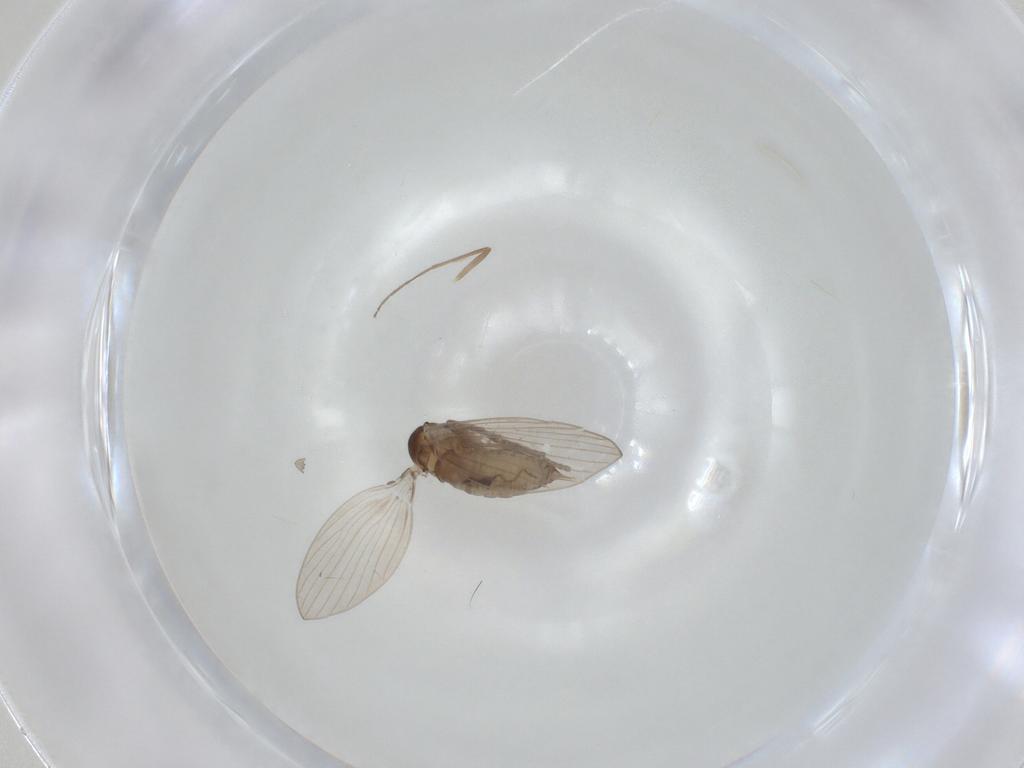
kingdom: Animalia
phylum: Arthropoda
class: Insecta
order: Diptera
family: Psychodidae
